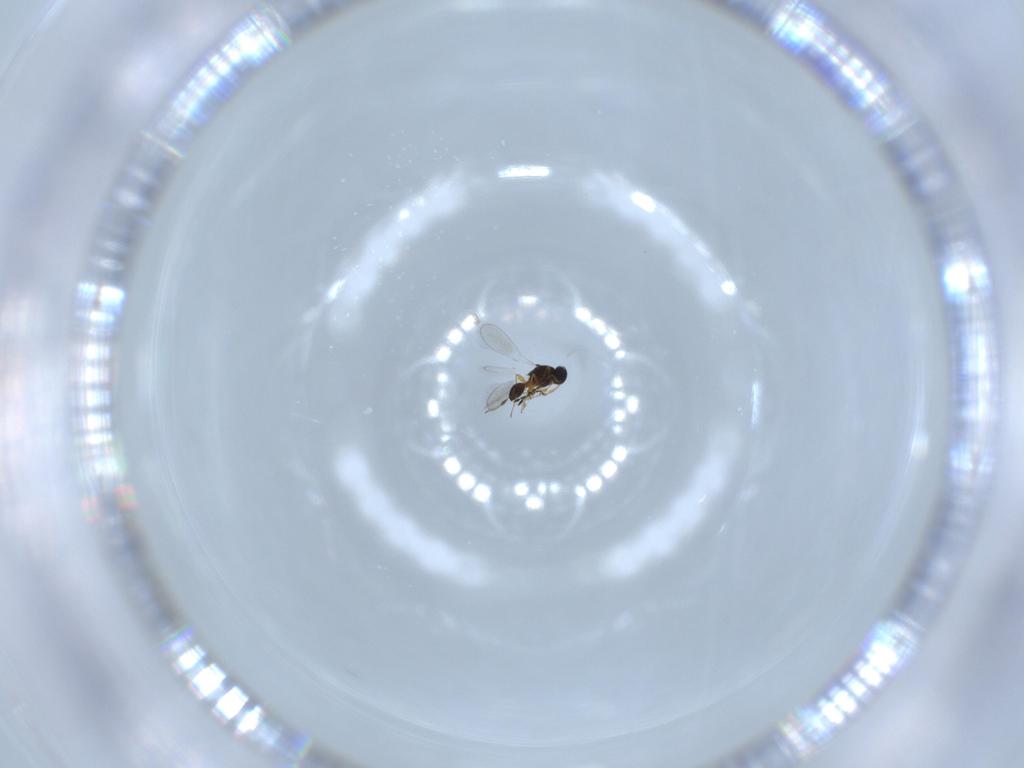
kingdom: Animalia
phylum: Arthropoda
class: Insecta
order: Hymenoptera
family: Platygastridae
